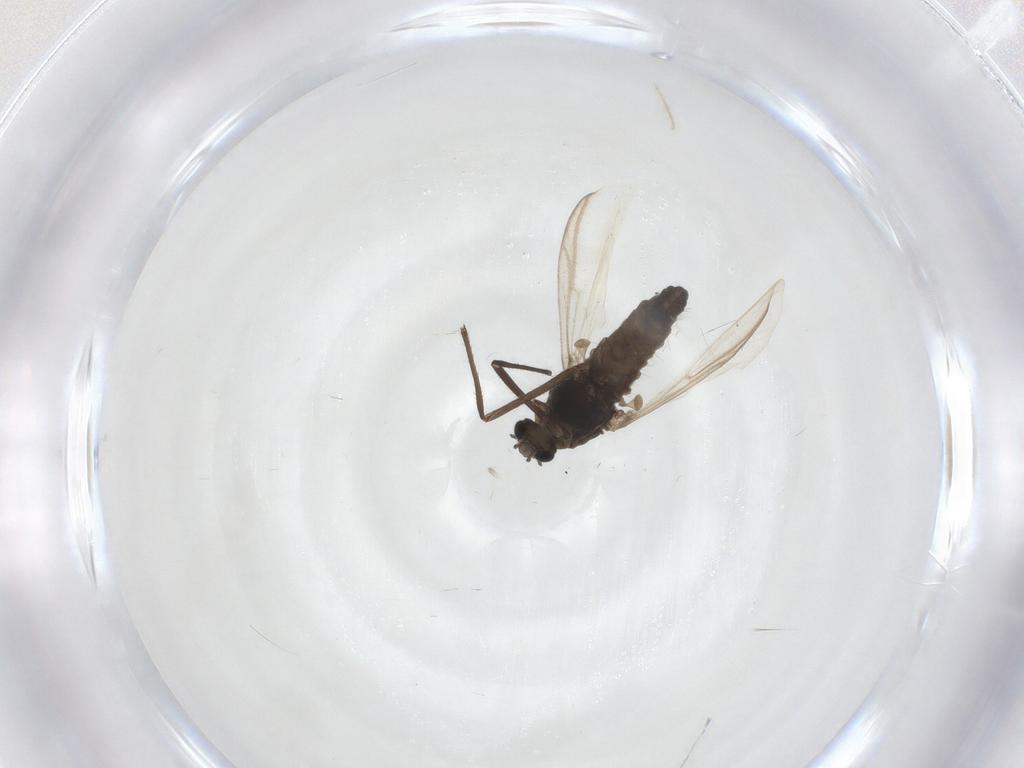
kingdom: Animalia
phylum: Arthropoda
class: Insecta
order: Diptera
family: Chironomidae
